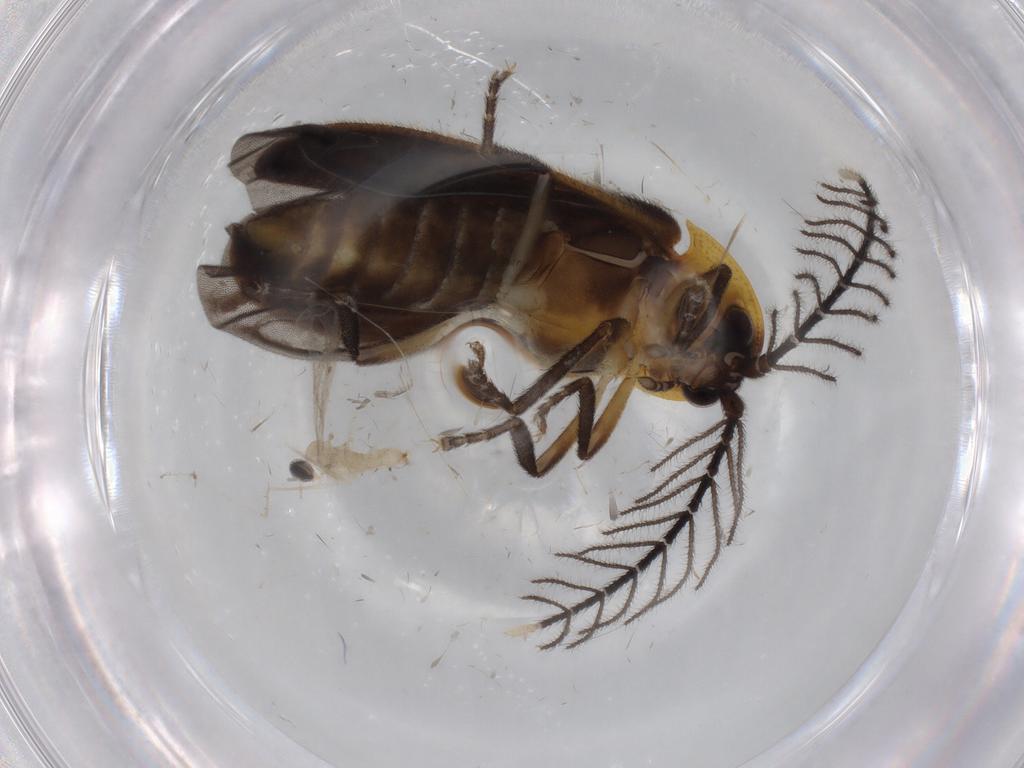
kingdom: Animalia
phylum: Arthropoda
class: Insecta
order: Coleoptera
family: Lampyridae
